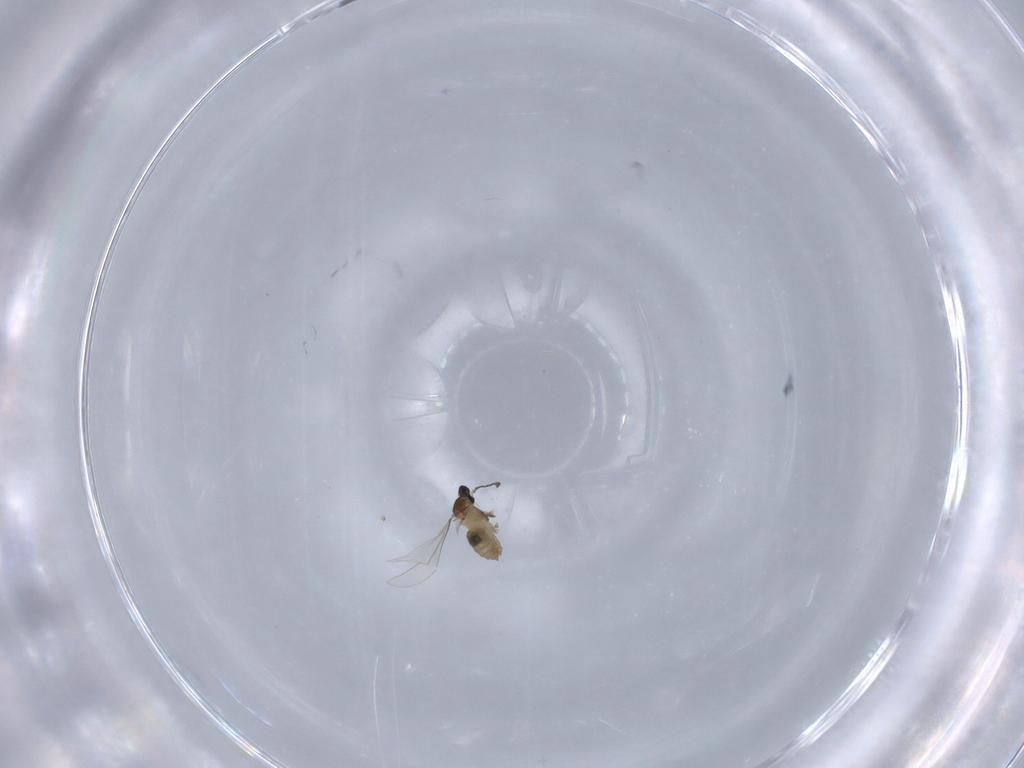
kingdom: Animalia
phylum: Arthropoda
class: Insecta
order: Diptera
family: Cecidomyiidae
